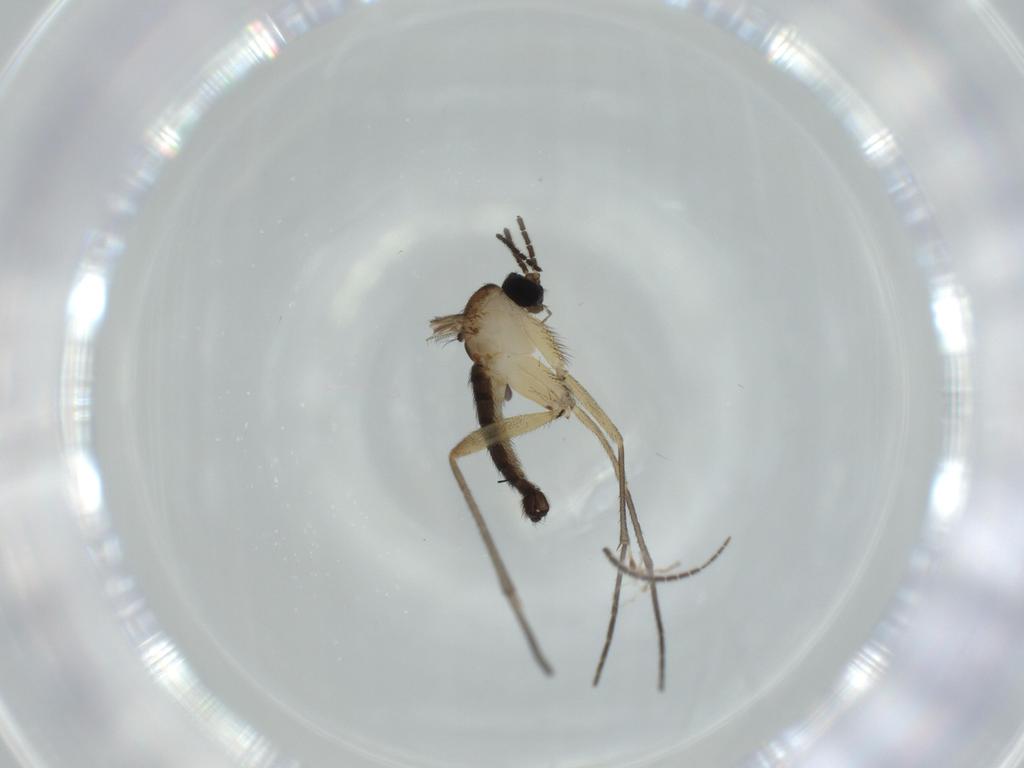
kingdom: Animalia
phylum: Arthropoda
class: Insecta
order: Diptera
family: Sciaridae
